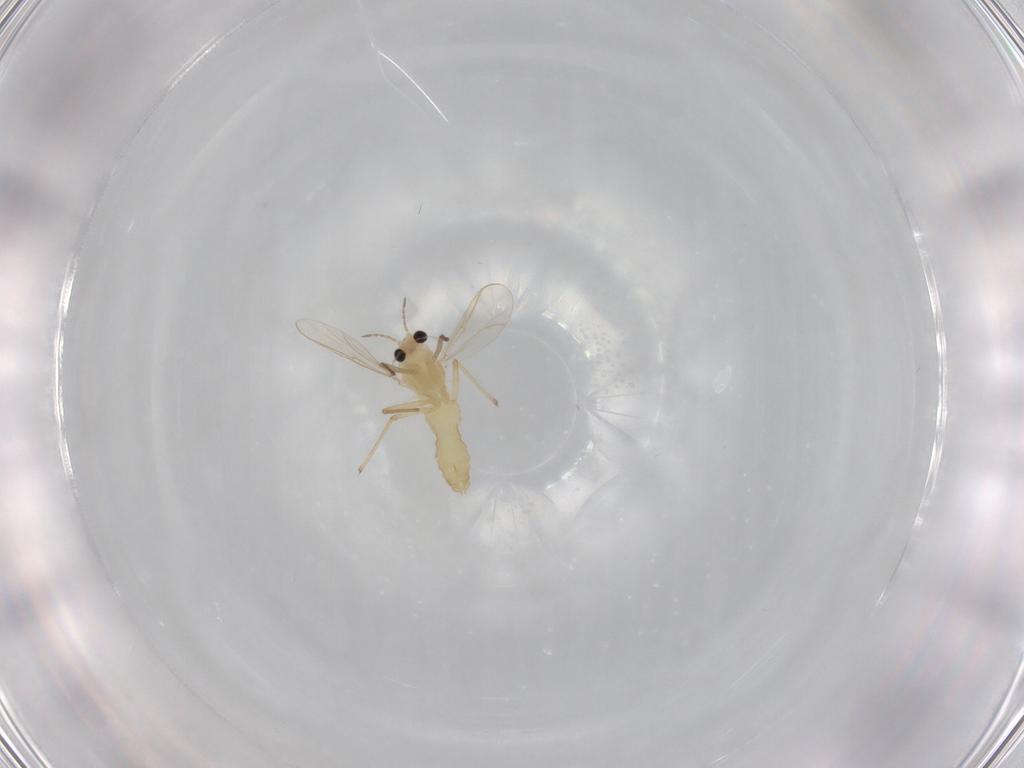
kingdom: Animalia
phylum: Arthropoda
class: Insecta
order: Diptera
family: Chironomidae
